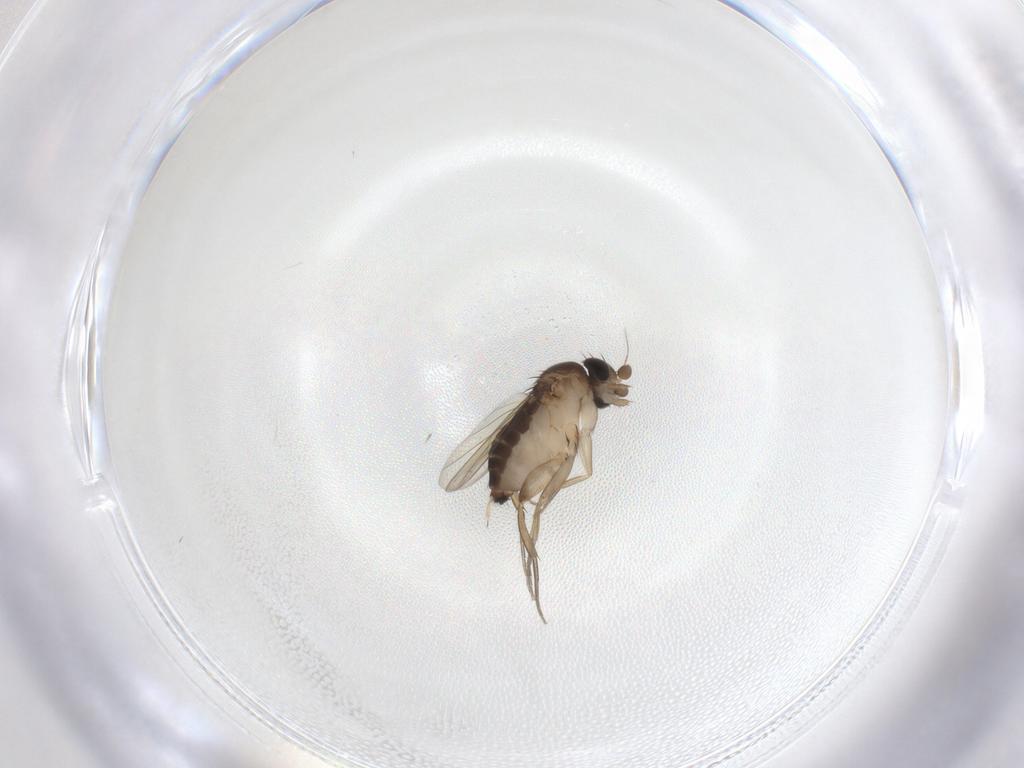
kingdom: Animalia
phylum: Arthropoda
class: Insecta
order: Diptera
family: Phoridae
